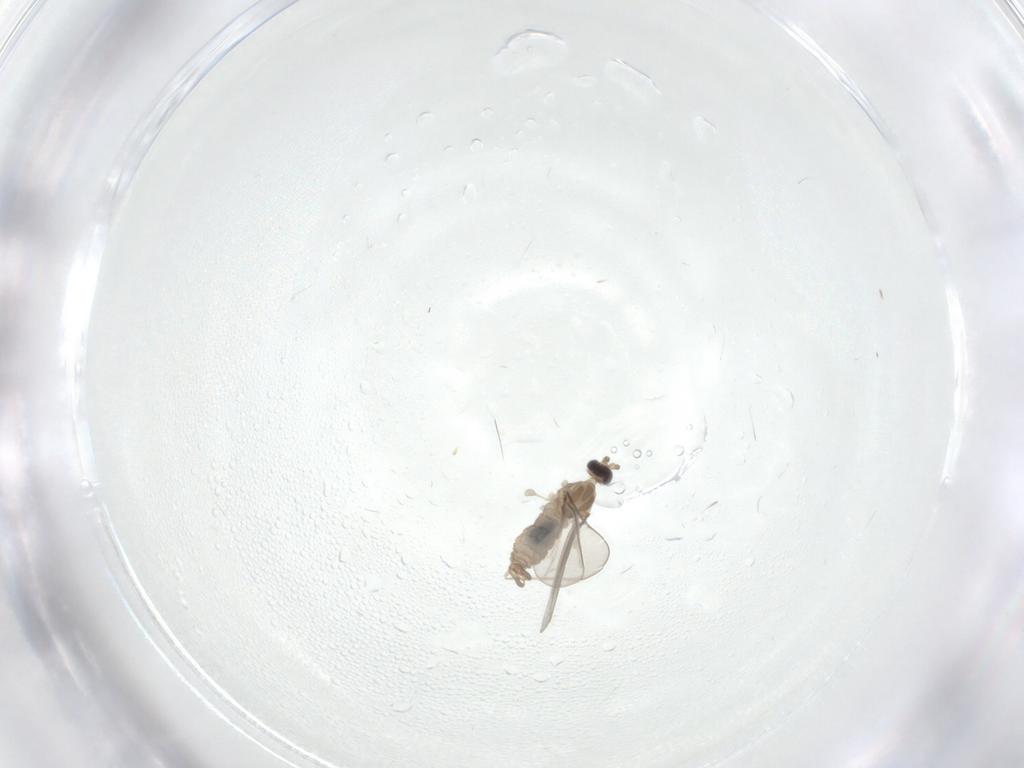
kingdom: Animalia
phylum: Arthropoda
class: Insecta
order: Diptera
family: Cecidomyiidae
